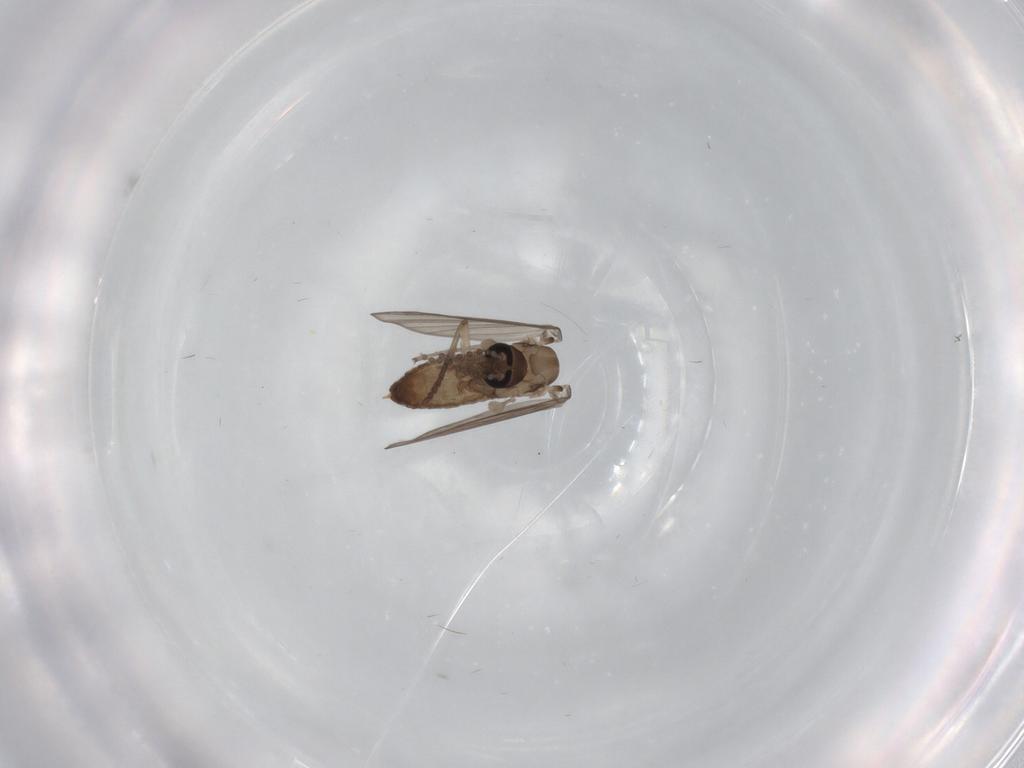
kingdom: Animalia
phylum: Arthropoda
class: Insecta
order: Diptera
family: Psychodidae
